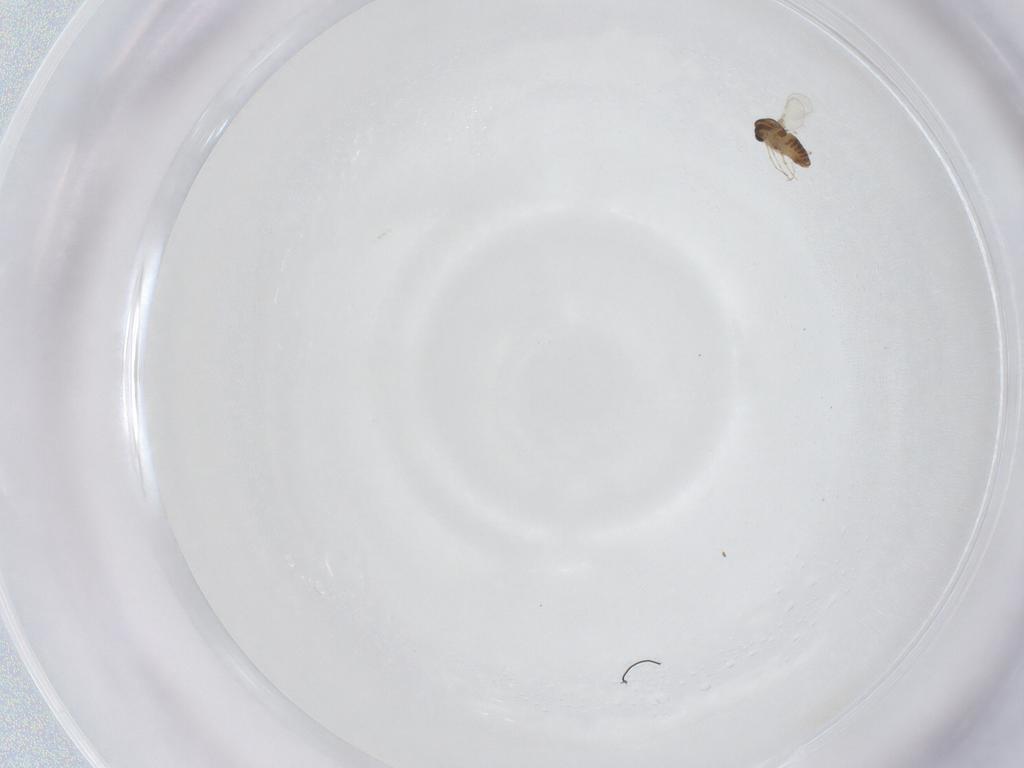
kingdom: Animalia
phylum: Arthropoda
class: Insecta
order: Diptera
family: Chironomidae
